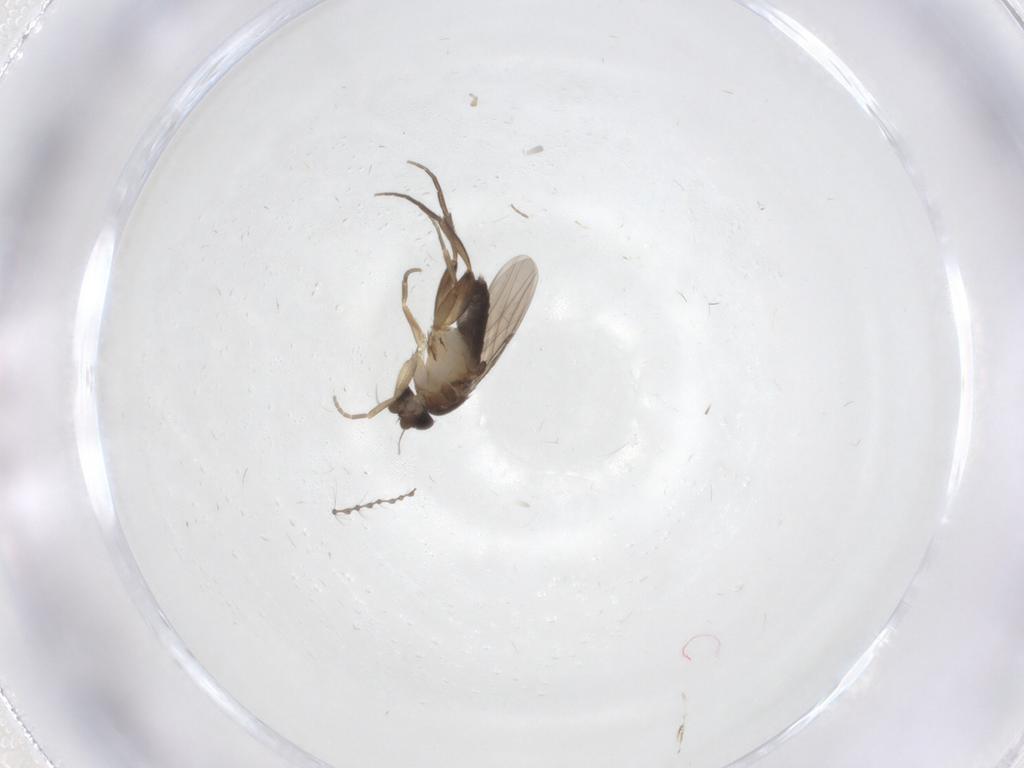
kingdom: Animalia
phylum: Arthropoda
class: Insecta
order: Diptera
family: Phoridae
